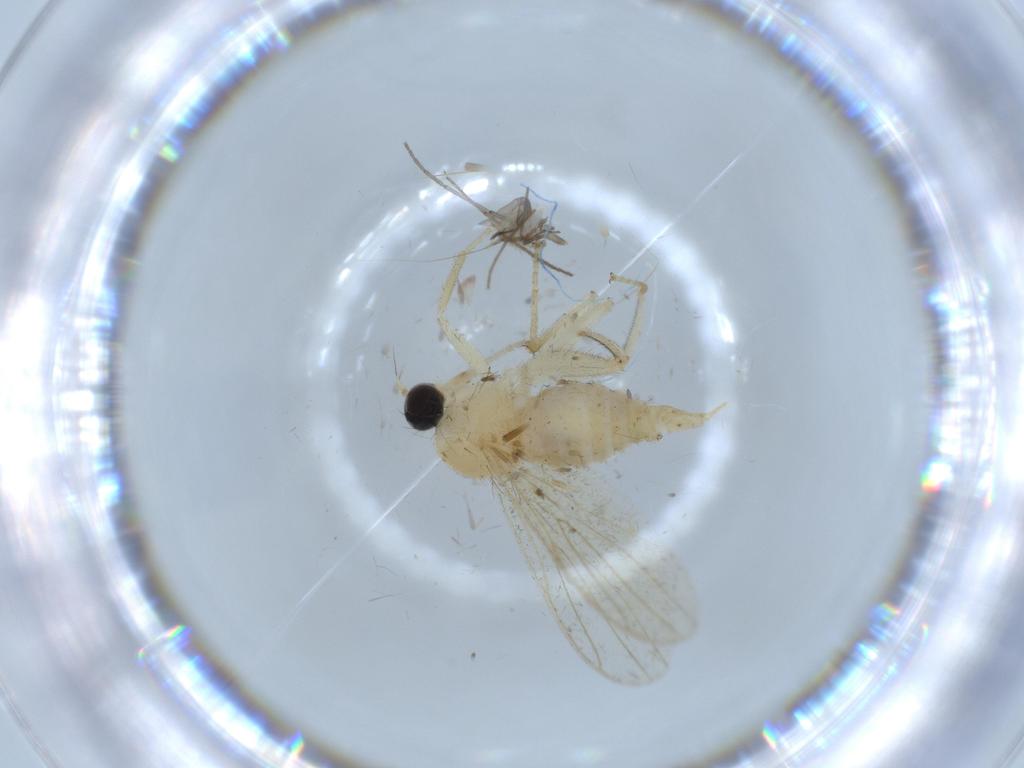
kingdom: Animalia
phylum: Arthropoda
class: Insecta
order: Diptera
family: Hybotidae
